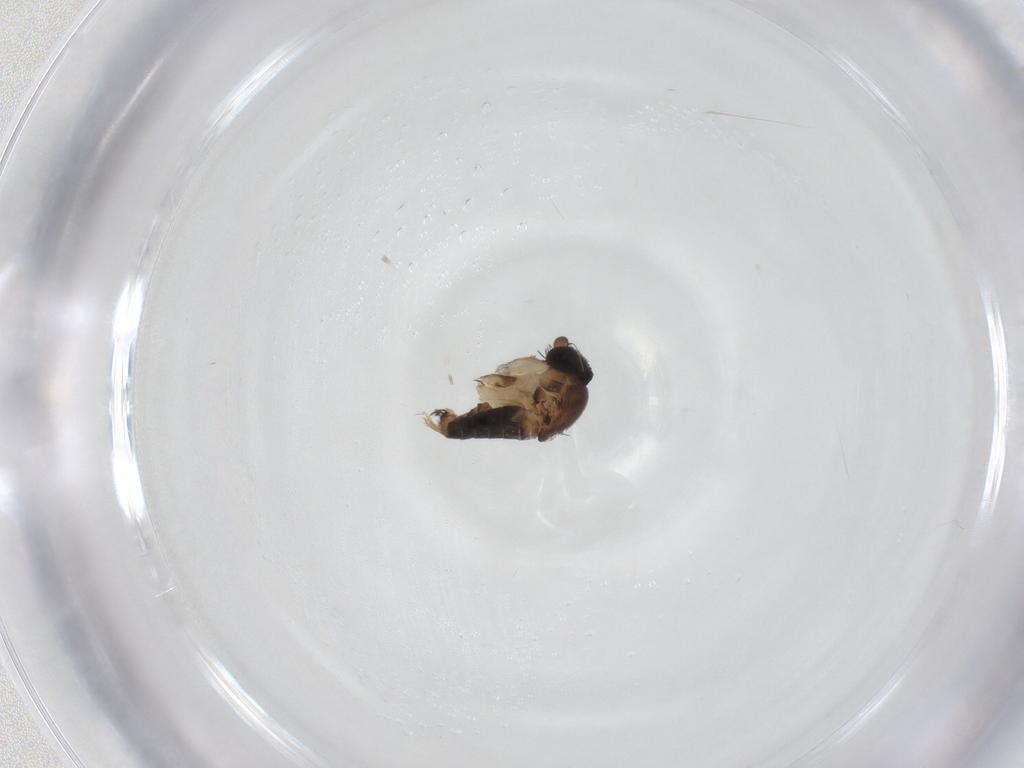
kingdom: Animalia
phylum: Arthropoda
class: Insecta
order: Diptera
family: Phoridae
